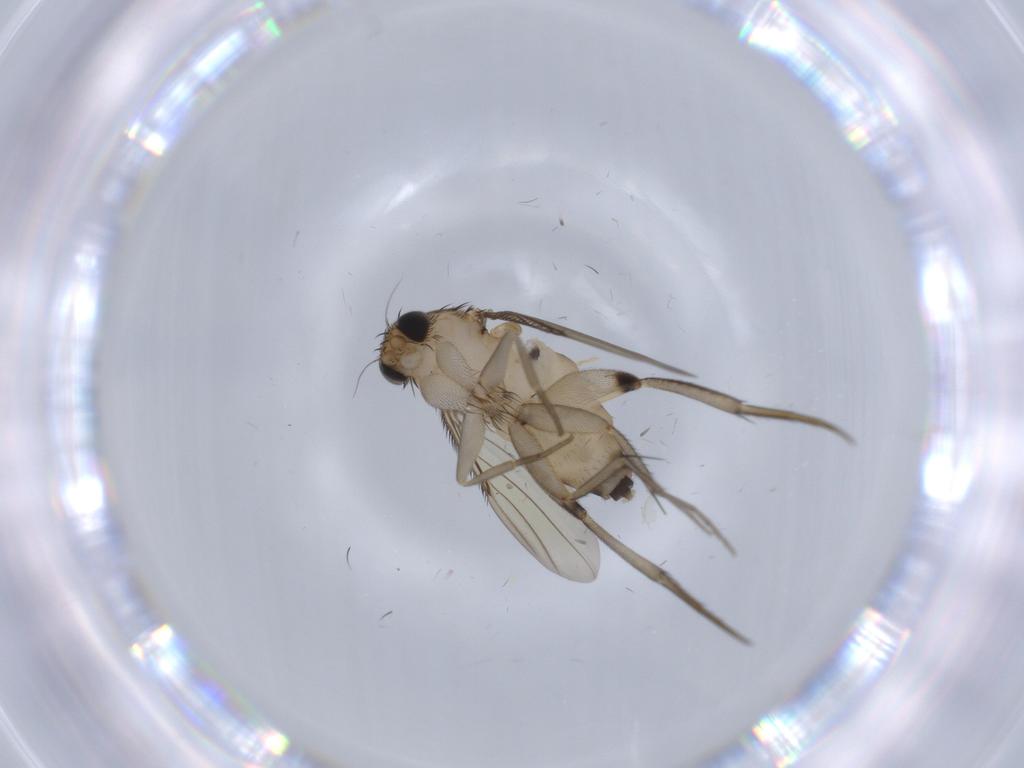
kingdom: Animalia
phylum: Arthropoda
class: Insecta
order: Diptera
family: Phoridae
